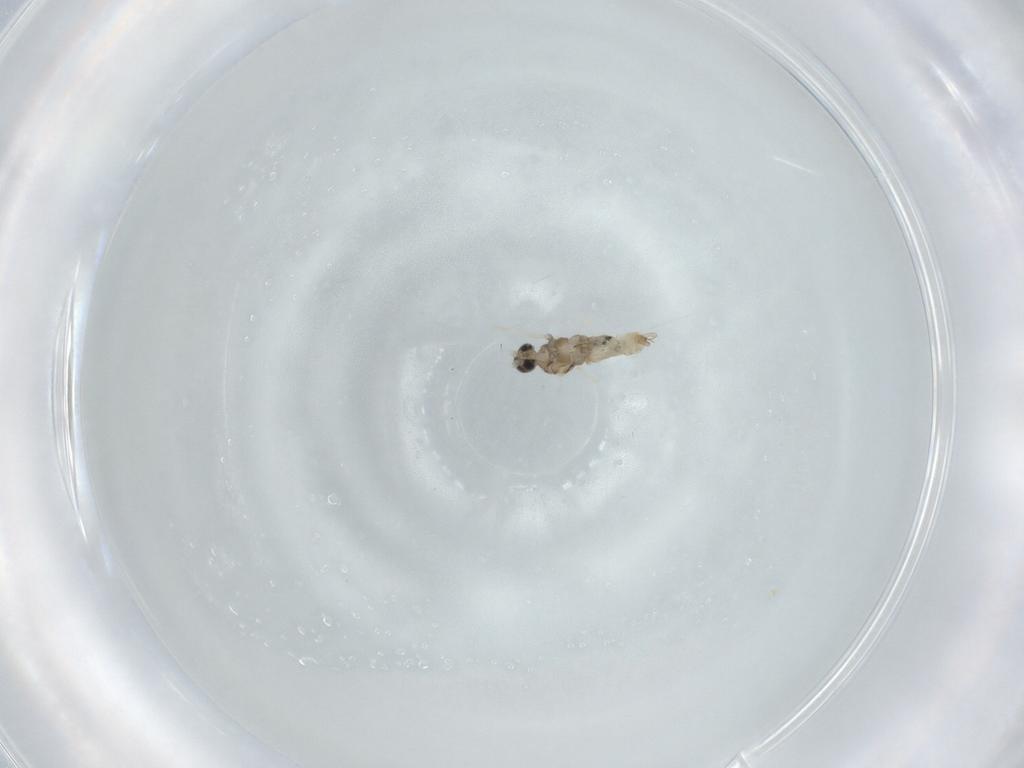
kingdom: Animalia
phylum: Arthropoda
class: Insecta
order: Diptera
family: Cecidomyiidae
